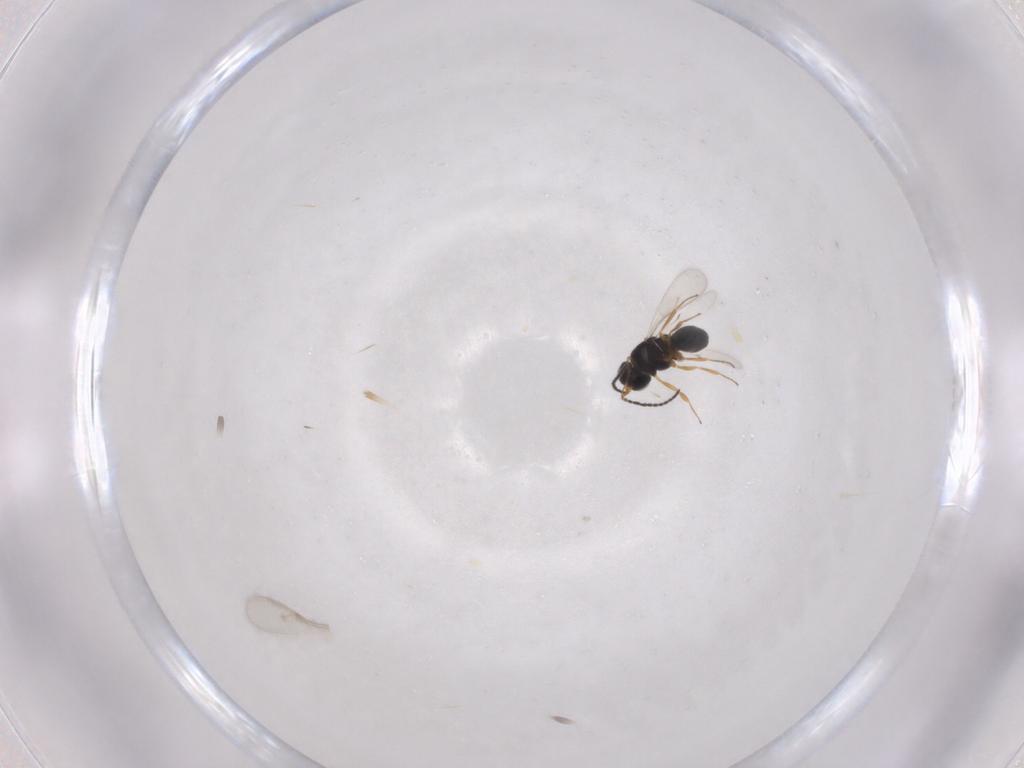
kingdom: Animalia
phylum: Arthropoda
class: Insecta
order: Hymenoptera
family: Scelionidae
